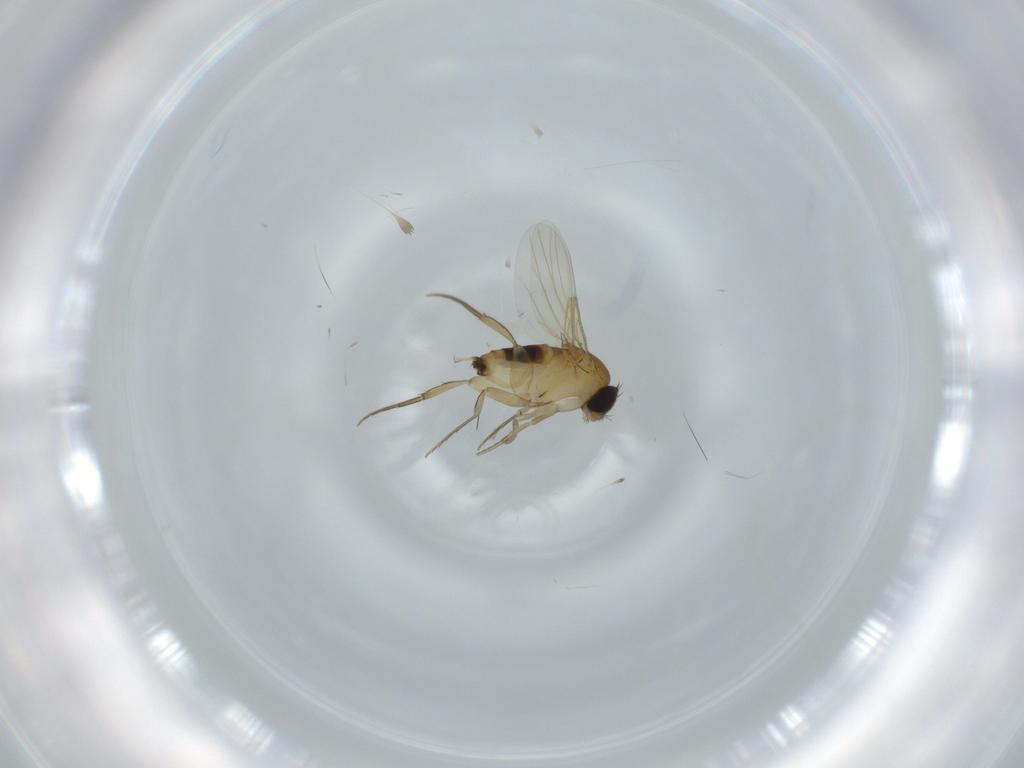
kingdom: Animalia
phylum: Arthropoda
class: Insecta
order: Diptera
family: Phoridae
